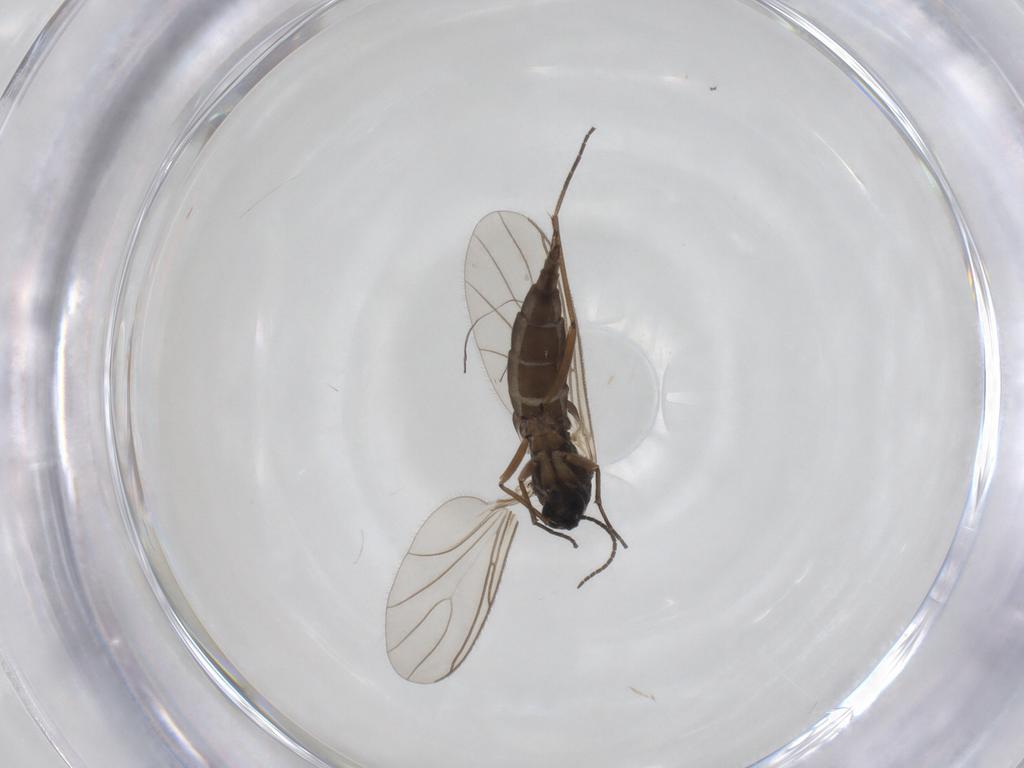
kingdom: Animalia
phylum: Arthropoda
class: Insecta
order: Diptera
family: Sciaridae
